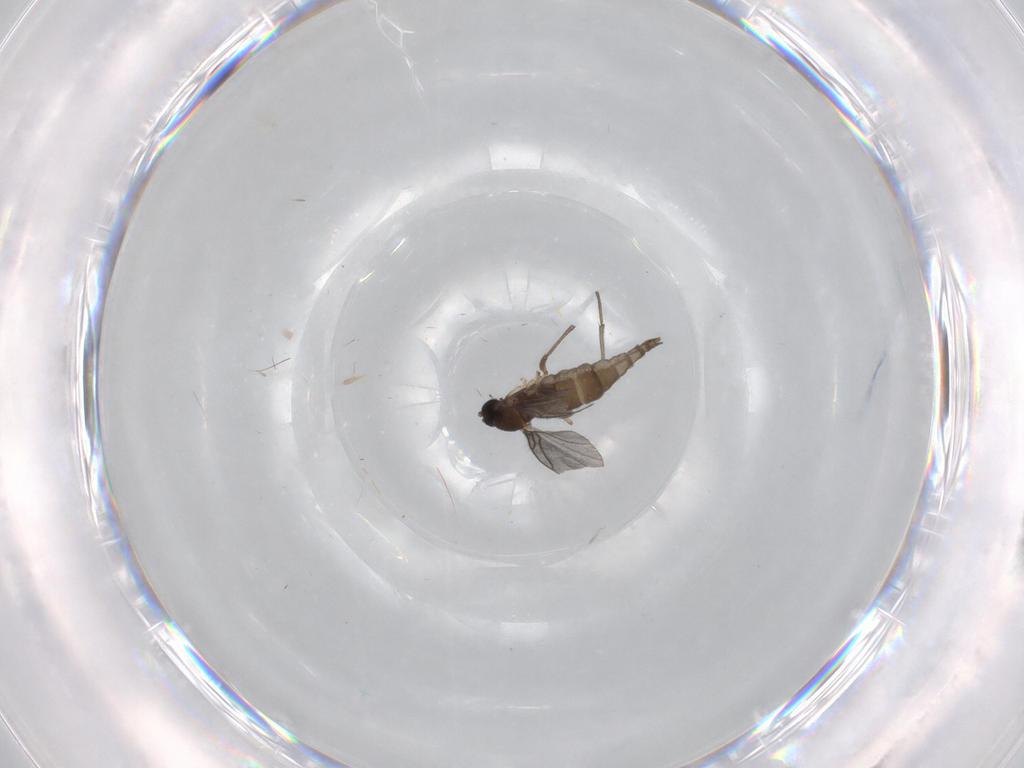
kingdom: Animalia
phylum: Arthropoda
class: Insecta
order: Diptera
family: Sciaridae
